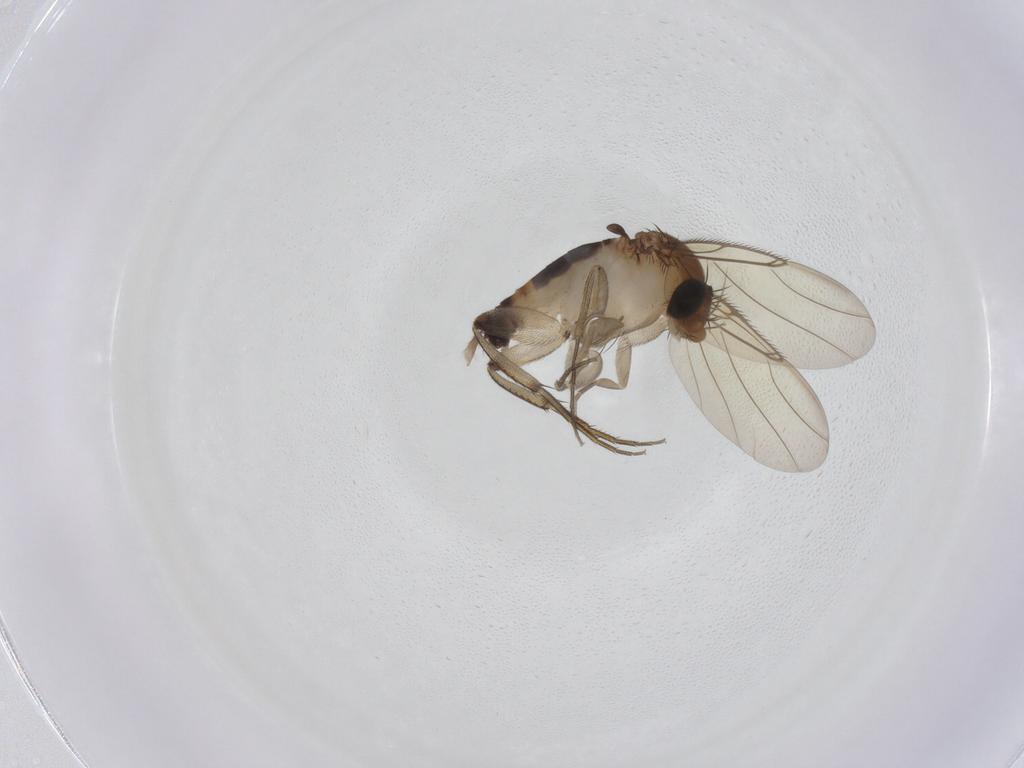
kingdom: Animalia
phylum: Arthropoda
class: Insecta
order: Diptera
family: Phoridae
